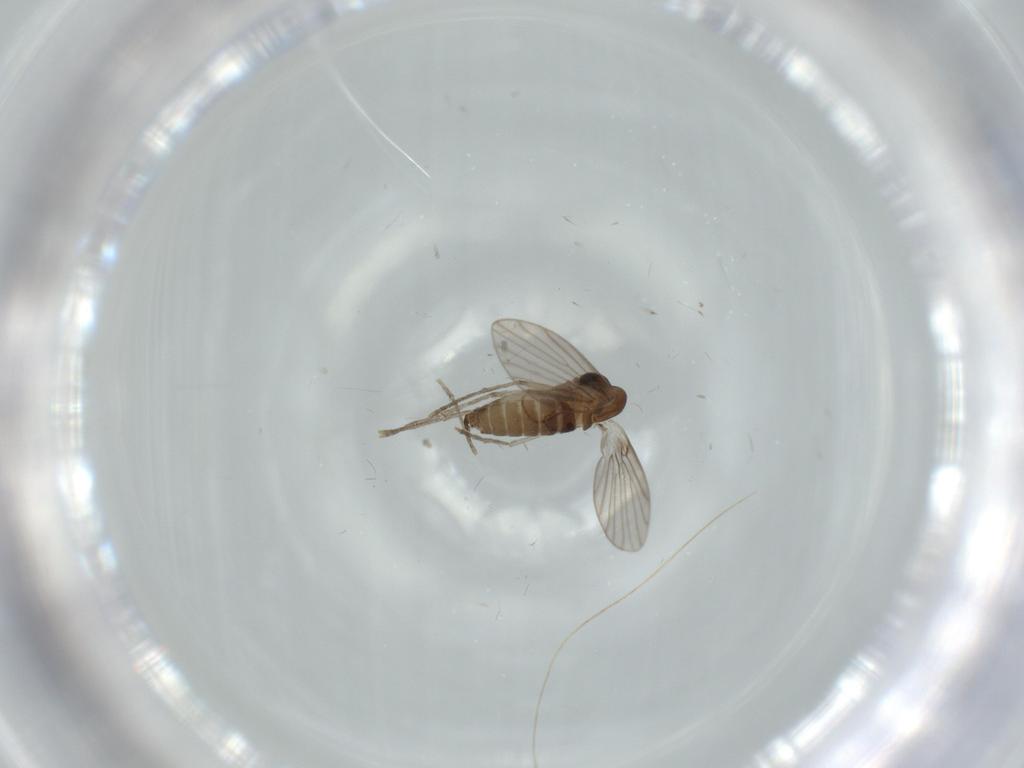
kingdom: Animalia
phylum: Arthropoda
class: Insecta
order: Diptera
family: Psychodidae
